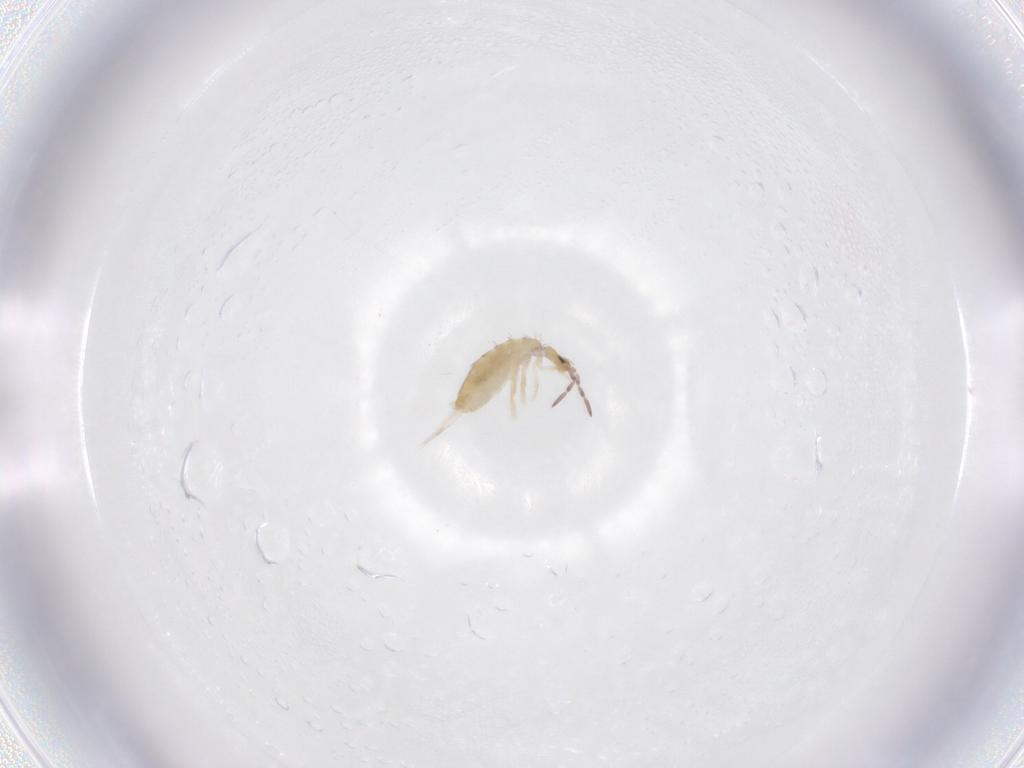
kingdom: Animalia
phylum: Arthropoda
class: Collembola
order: Entomobryomorpha
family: Entomobryidae
